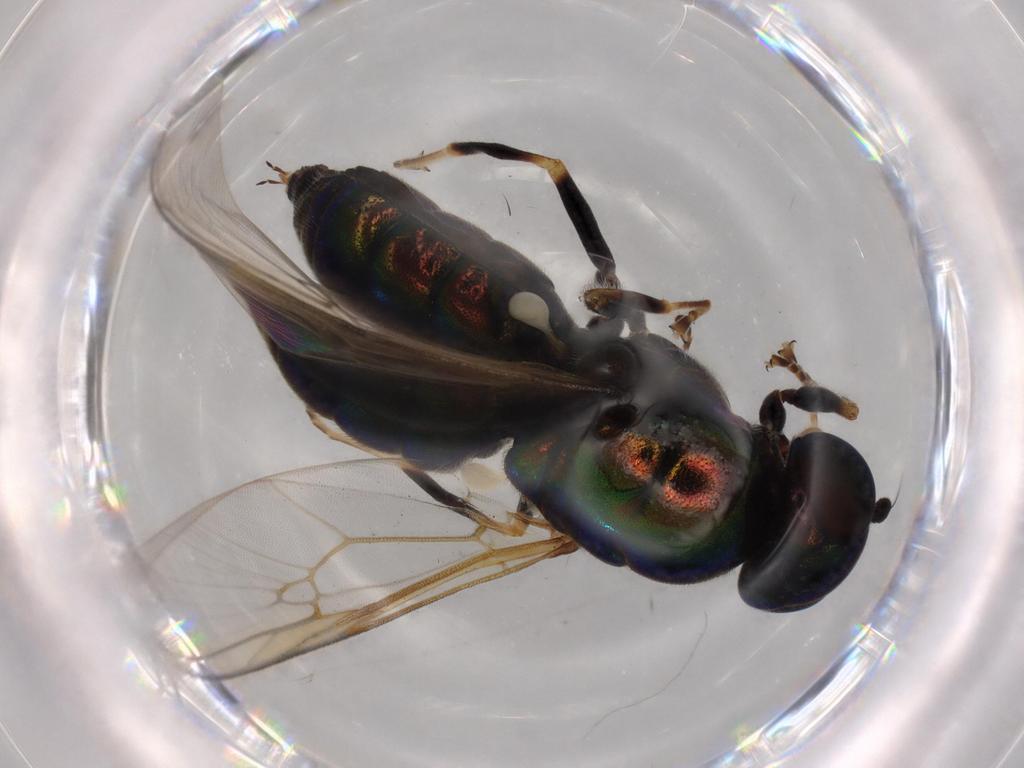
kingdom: Animalia
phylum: Arthropoda
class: Insecta
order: Diptera
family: Stratiomyidae
